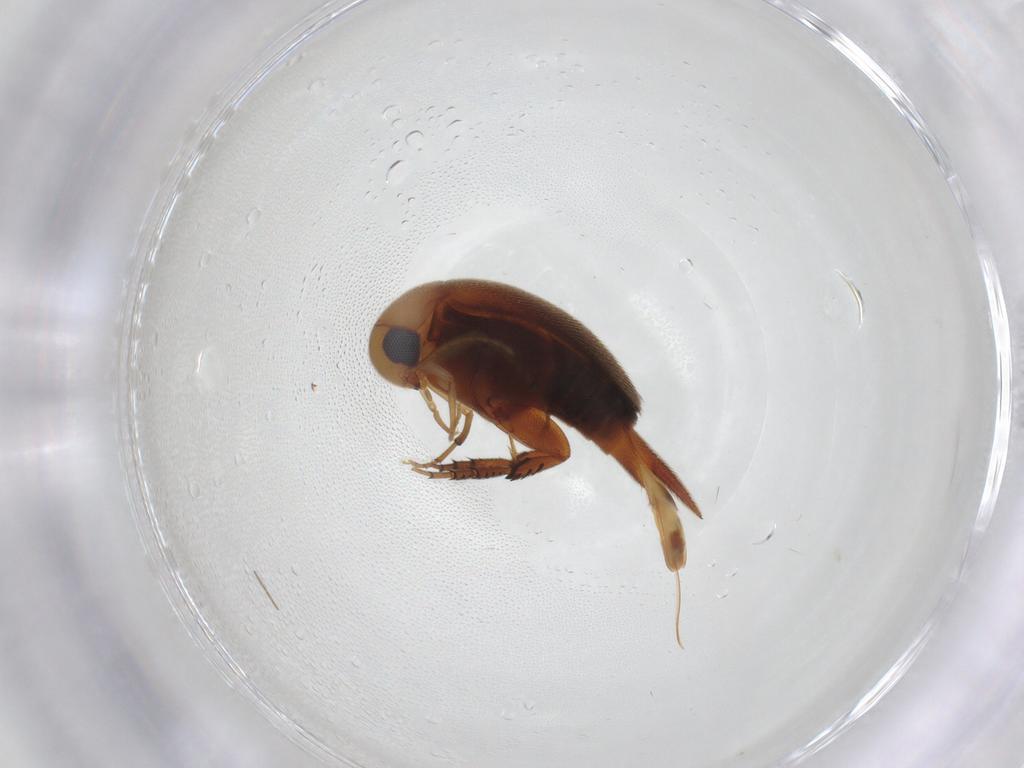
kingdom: Animalia
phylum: Arthropoda
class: Insecta
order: Coleoptera
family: Mordellidae
